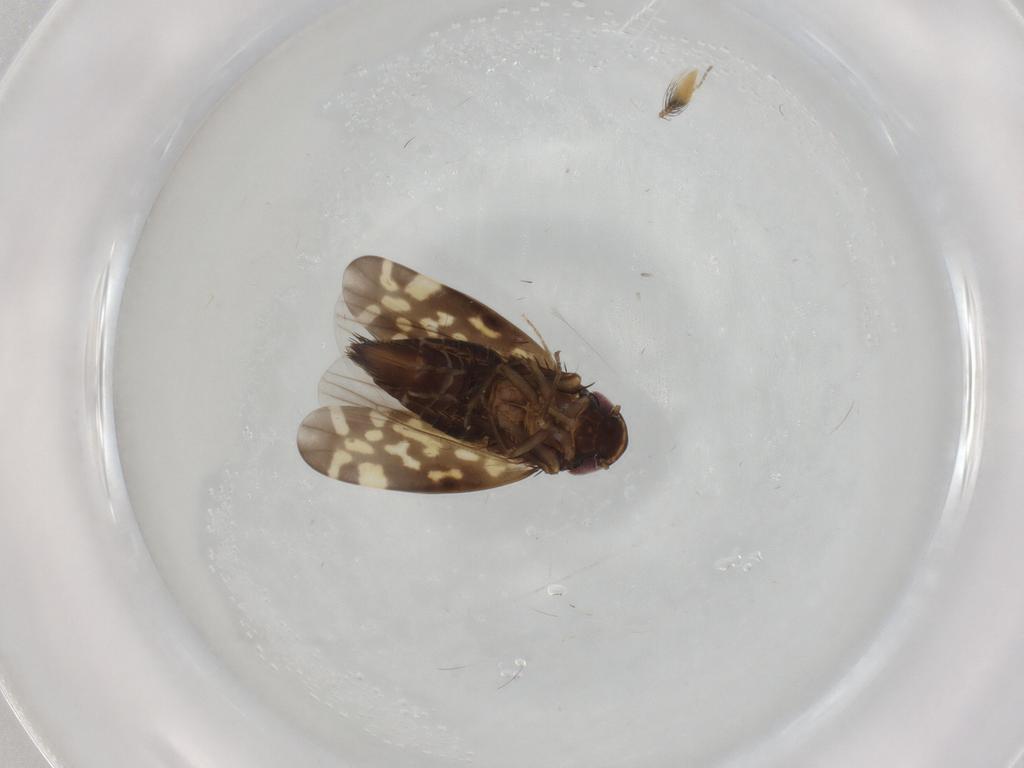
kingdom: Animalia
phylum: Arthropoda
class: Insecta
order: Hemiptera
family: Cicadellidae
